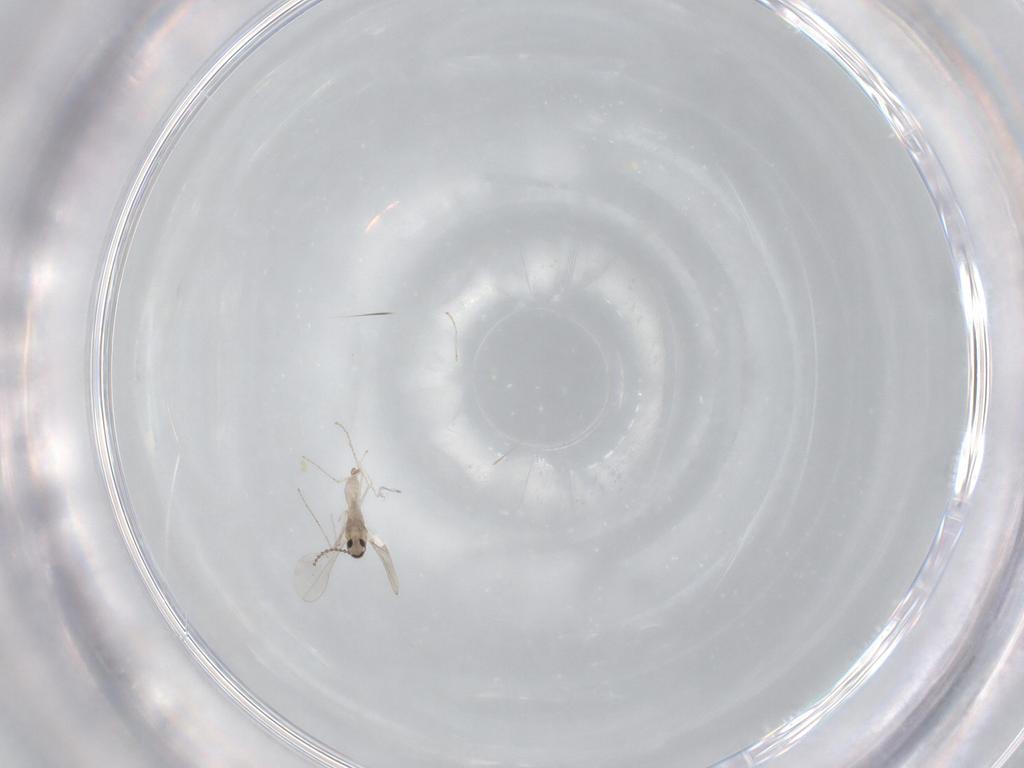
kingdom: Animalia
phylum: Arthropoda
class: Insecta
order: Diptera
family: Cecidomyiidae
